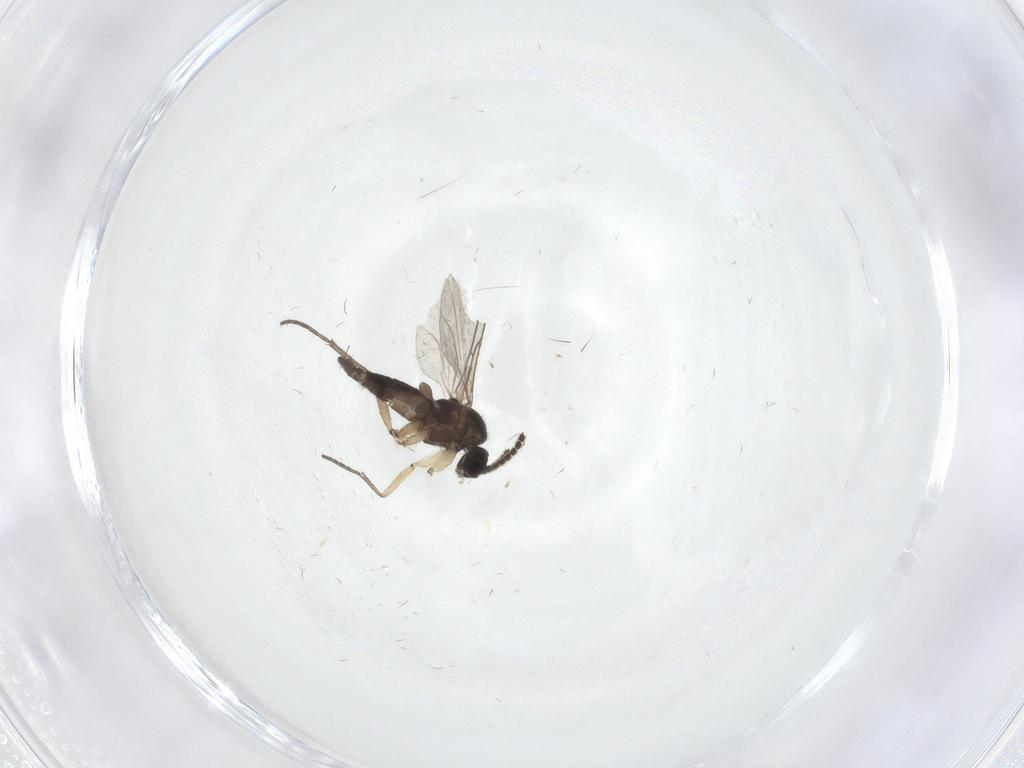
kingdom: Animalia
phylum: Arthropoda
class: Insecta
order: Diptera
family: Sciaridae
